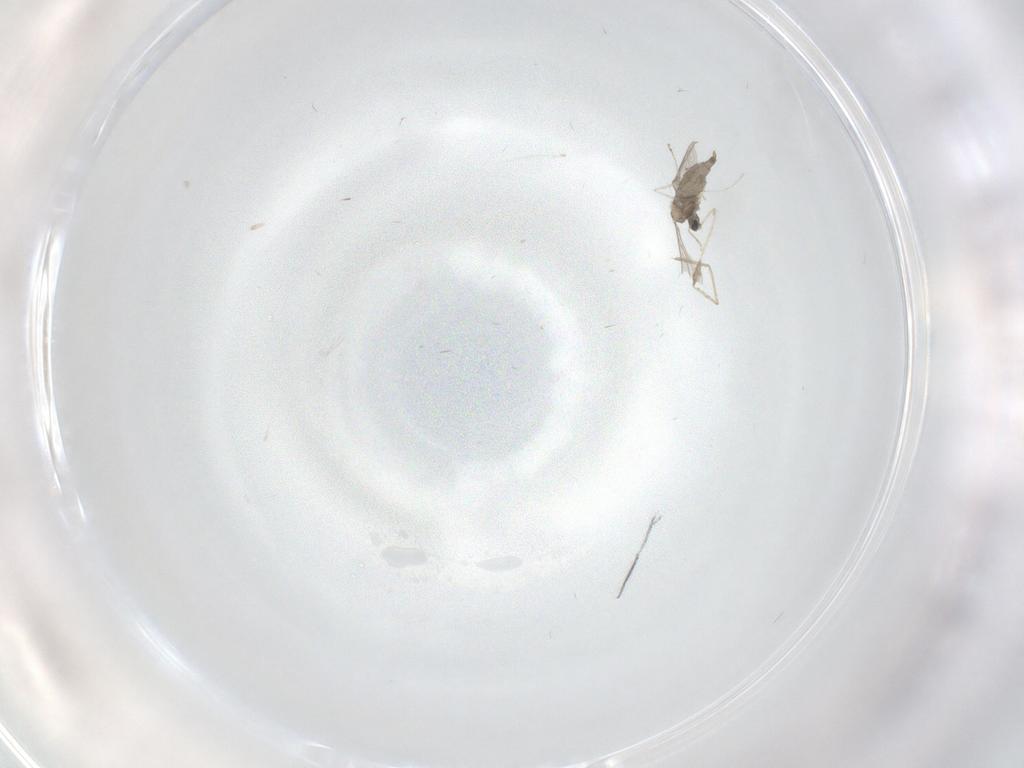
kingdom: Animalia
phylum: Arthropoda
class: Insecta
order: Diptera
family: Cecidomyiidae
